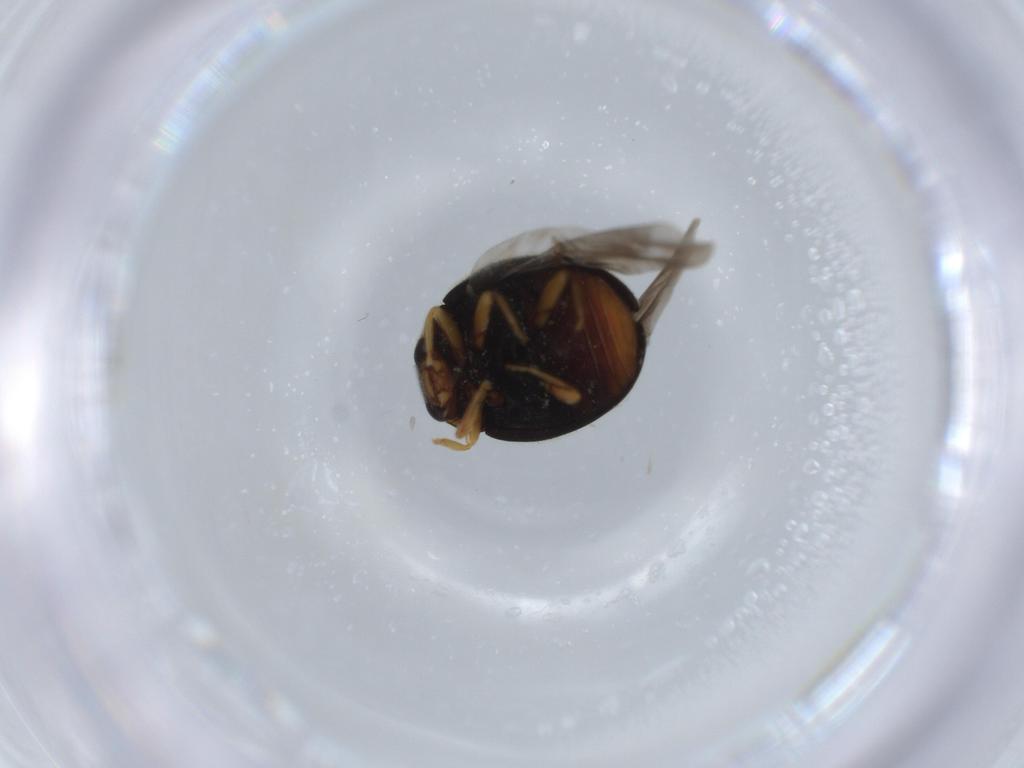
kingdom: Animalia
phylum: Arthropoda
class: Insecta
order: Coleoptera
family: Coccinellidae
